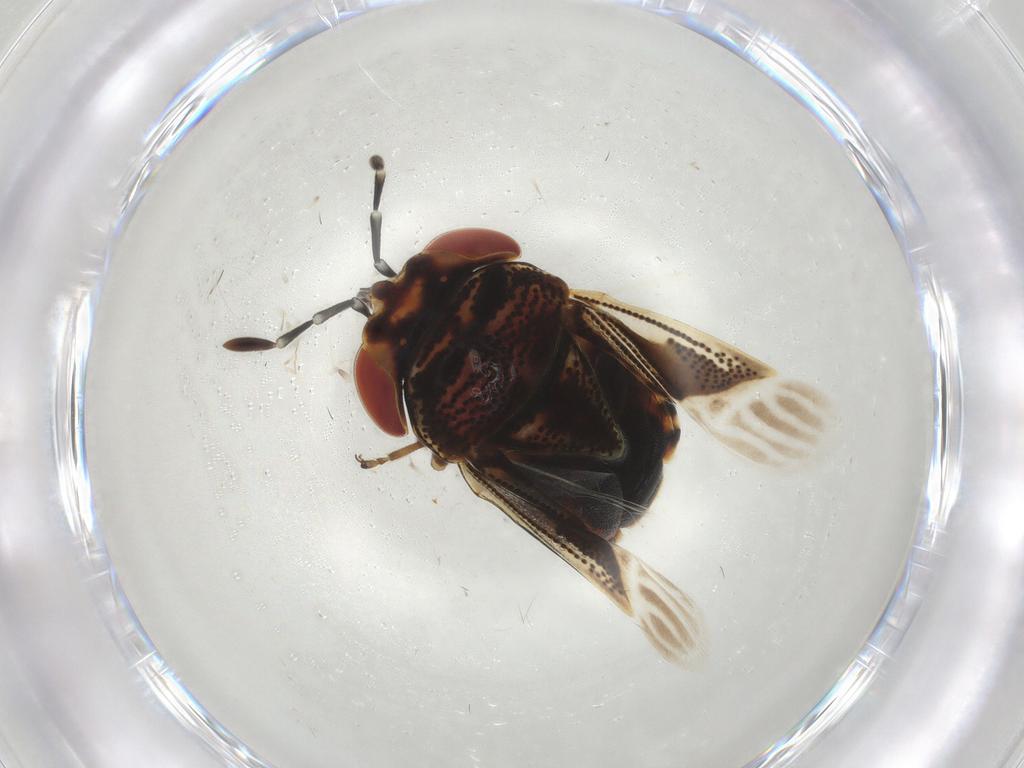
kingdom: Animalia
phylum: Arthropoda
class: Insecta
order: Hemiptera
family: Geocoridae
